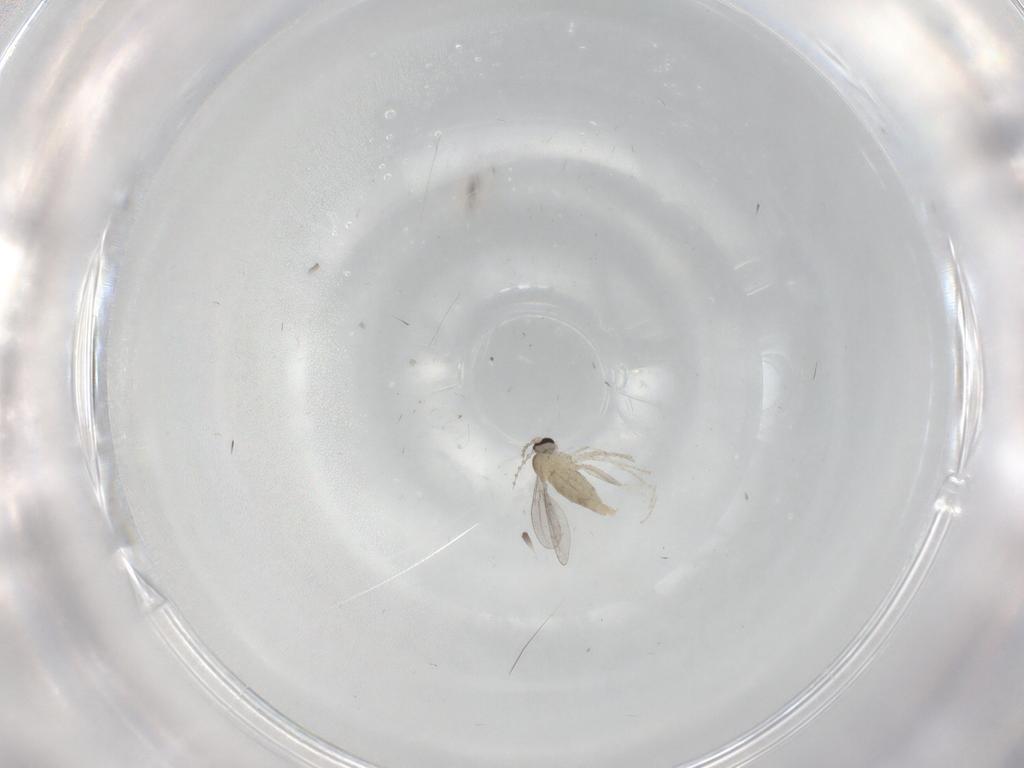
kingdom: Animalia
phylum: Arthropoda
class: Insecta
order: Diptera
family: Cecidomyiidae
